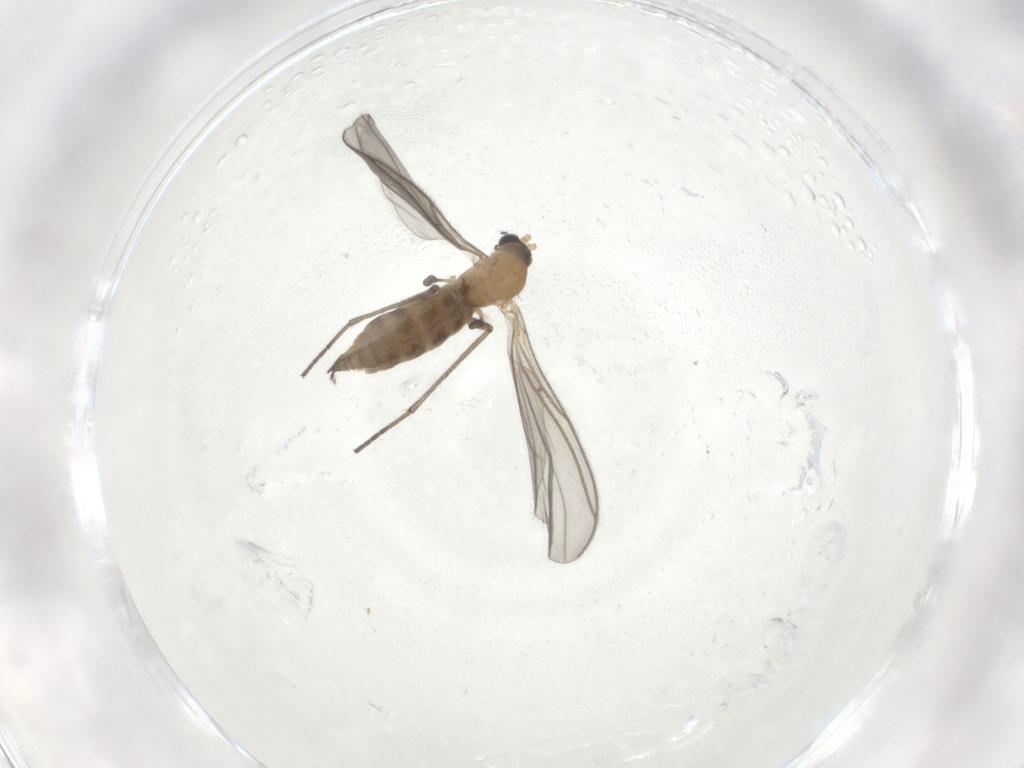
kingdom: Animalia
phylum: Arthropoda
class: Insecta
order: Diptera
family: Sciaridae
